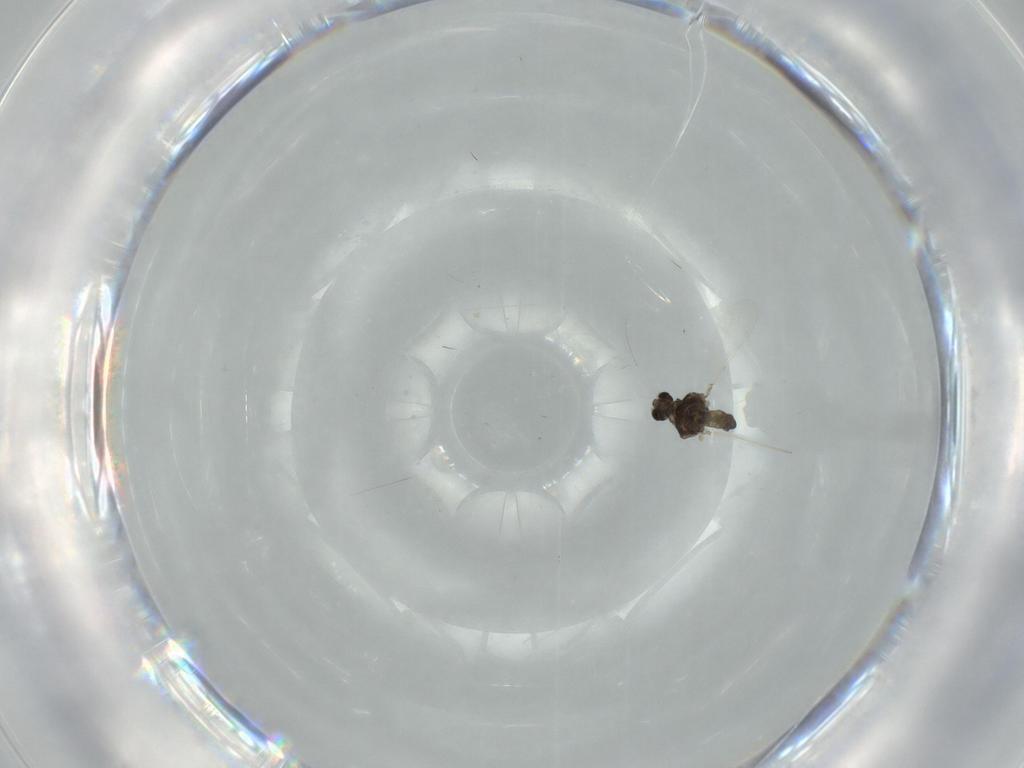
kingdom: Animalia
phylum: Arthropoda
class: Insecta
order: Diptera
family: Chironomidae
